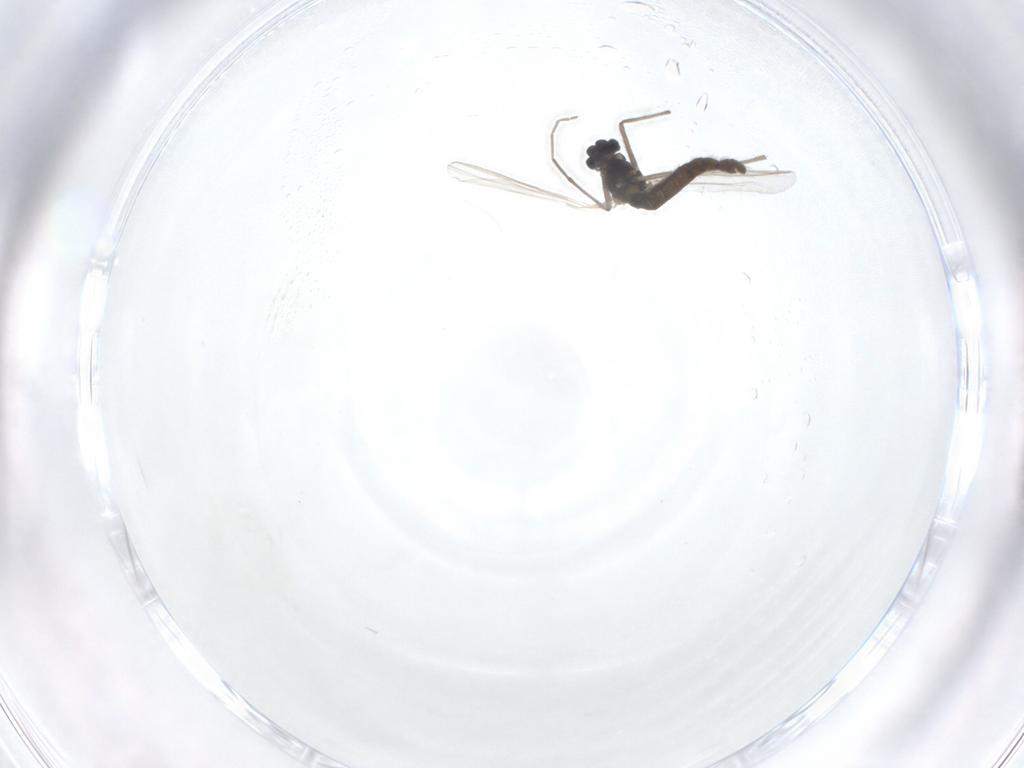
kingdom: Animalia
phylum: Arthropoda
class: Insecta
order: Diptera
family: Chironomidae
